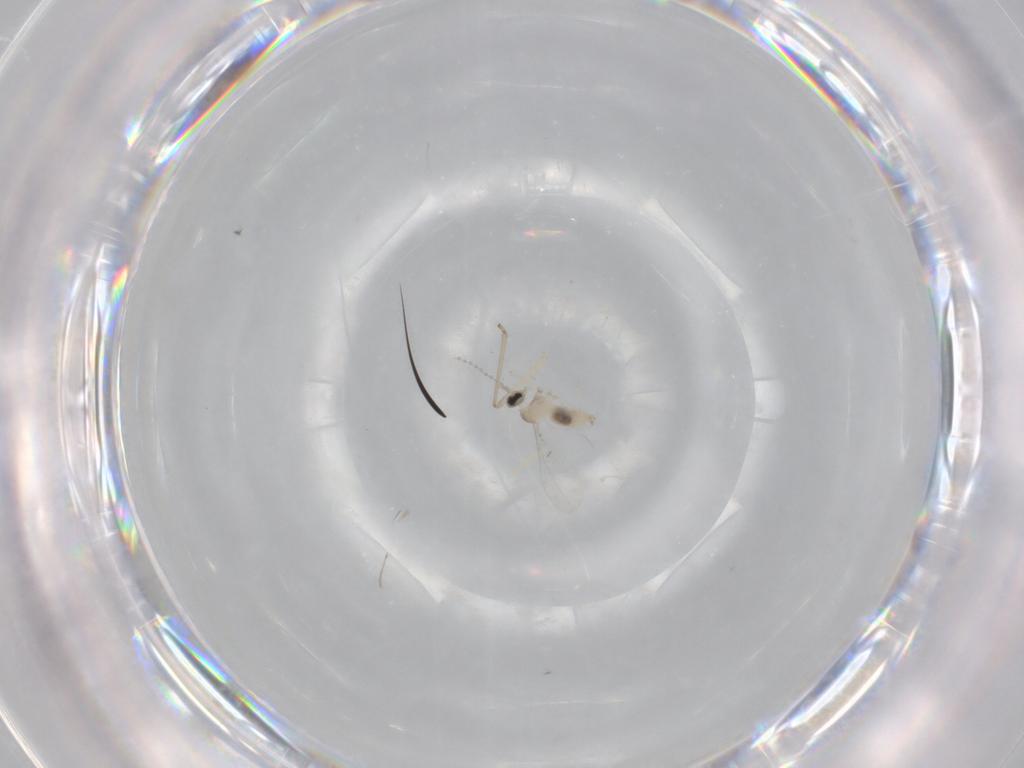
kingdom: Animalia
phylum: Arthropoda
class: Insecta
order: Diptera
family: Cecidomyiidae
